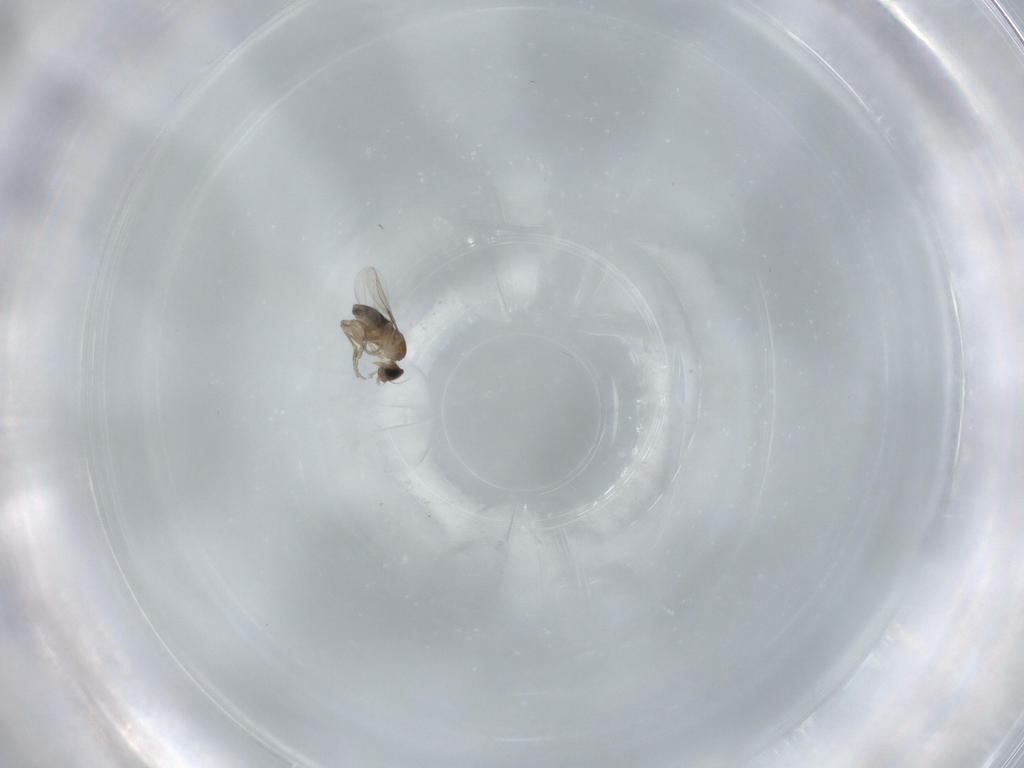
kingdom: Animalia
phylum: Arthropoda
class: Insecta
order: Diptera
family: Phoridae
